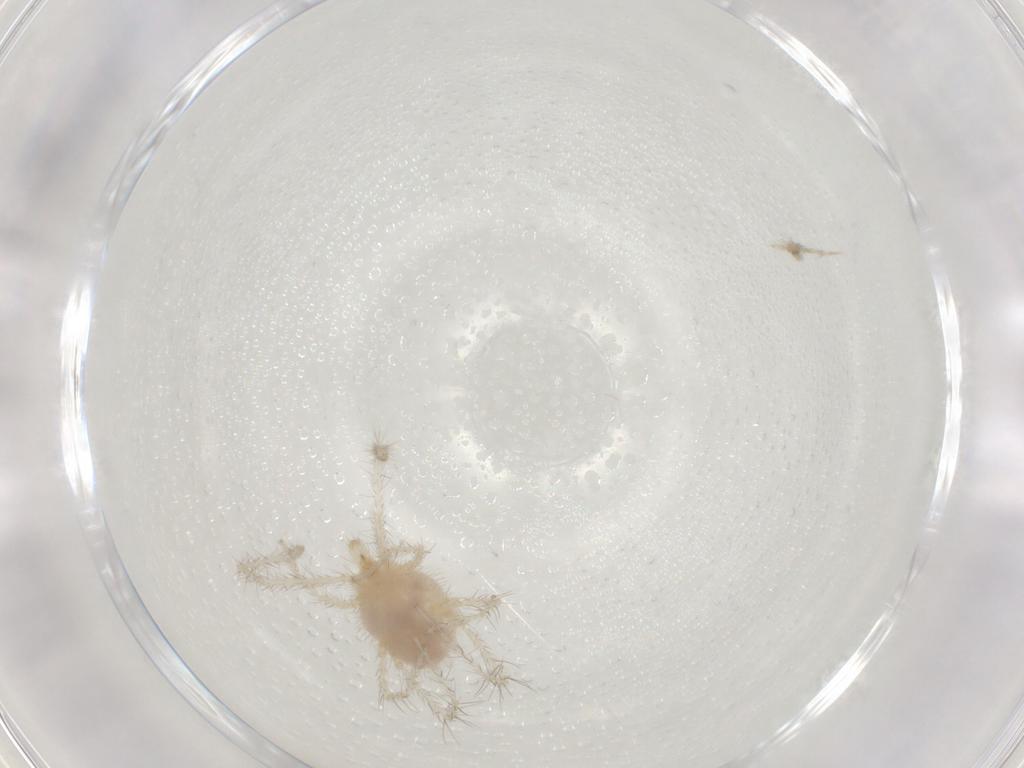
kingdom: Animalia
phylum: Arthropoda
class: Arachnida
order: Trombidiformes
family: Eupodidae
